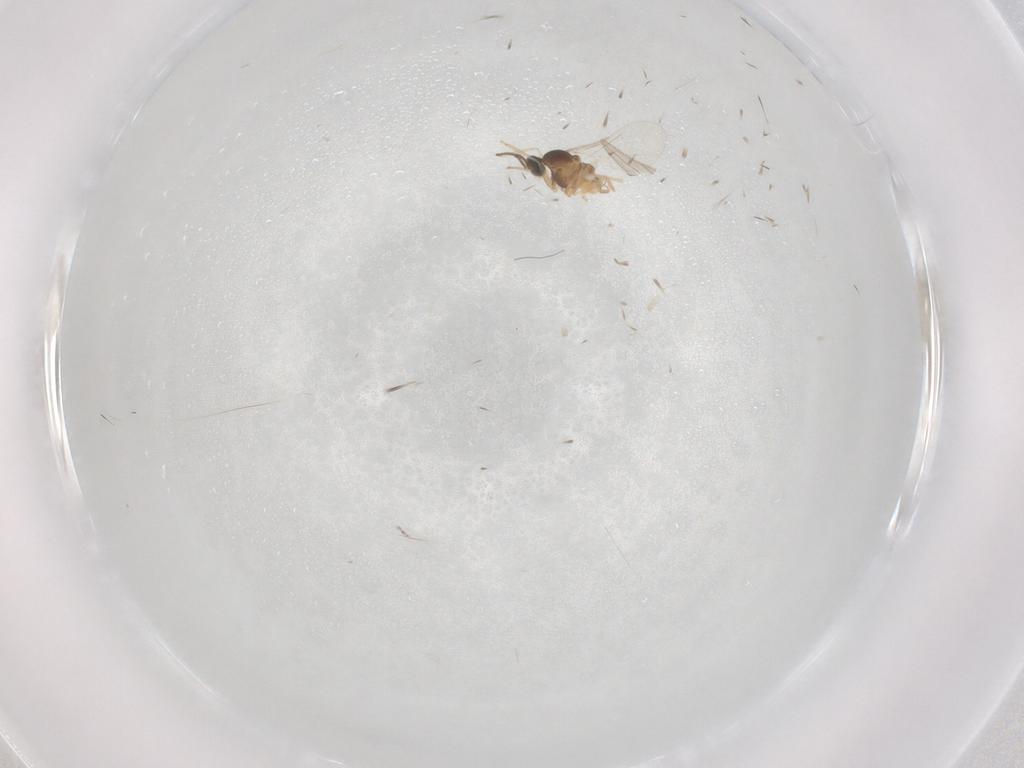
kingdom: Animalia
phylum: Arthropoda
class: Insecta
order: Diptera
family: Cecidomyiidae
